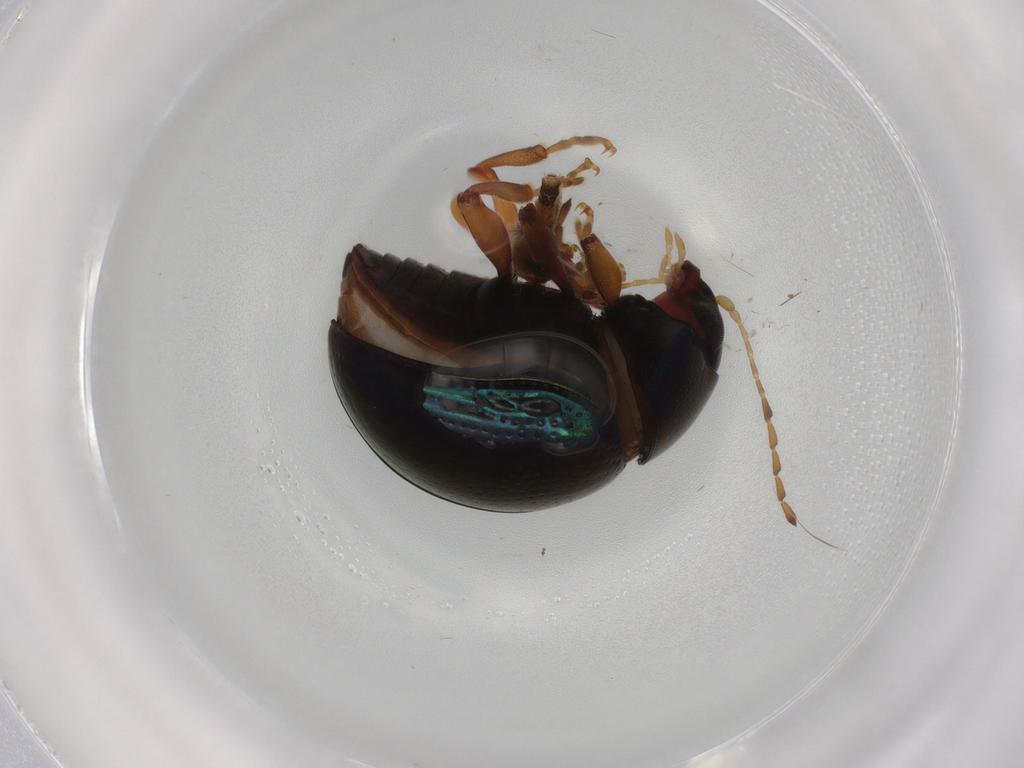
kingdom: Animalia
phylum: Arthropoda
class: Insecta
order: Coleoptera
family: Chrysomelidae
